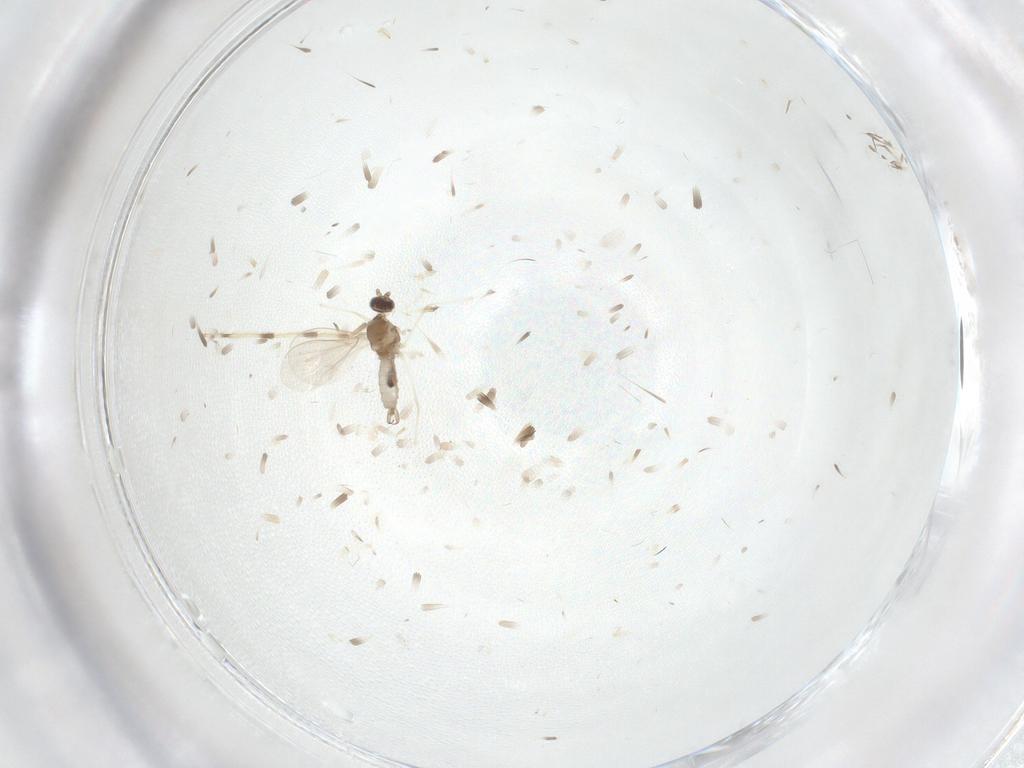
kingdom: Animalia
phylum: Arthropoda
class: Insecta
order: Diptera
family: Cecidomyiidae
